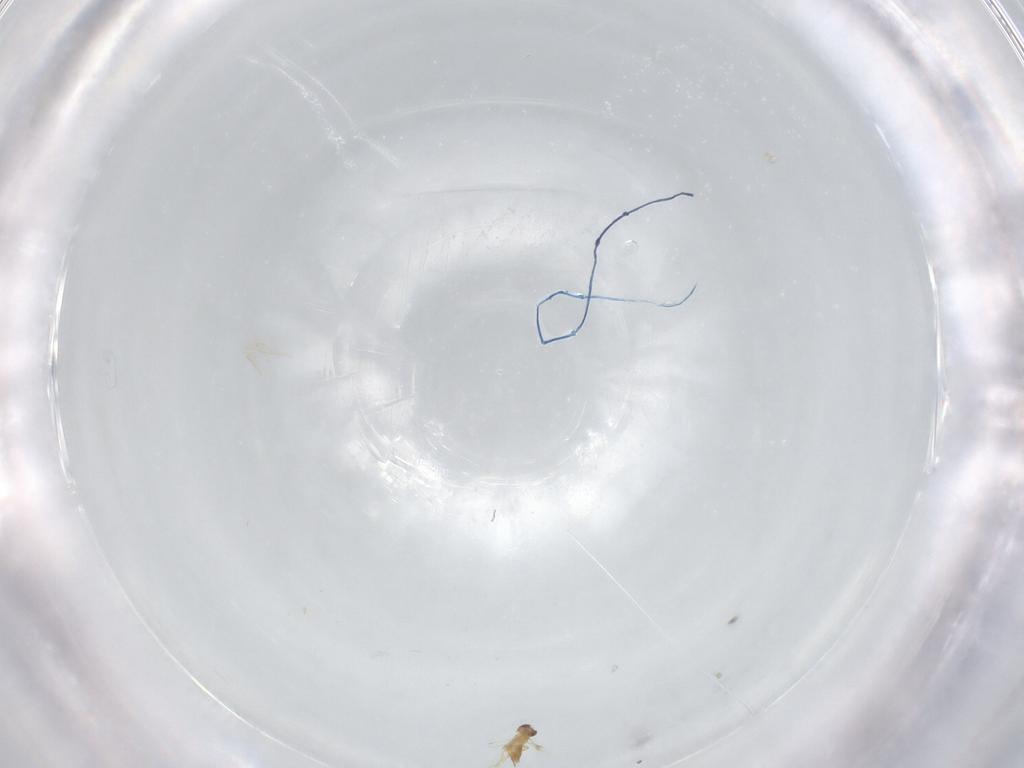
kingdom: Animalia
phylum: Arthropoda
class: Insecta
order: Hymenoptera
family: Mymaridae
